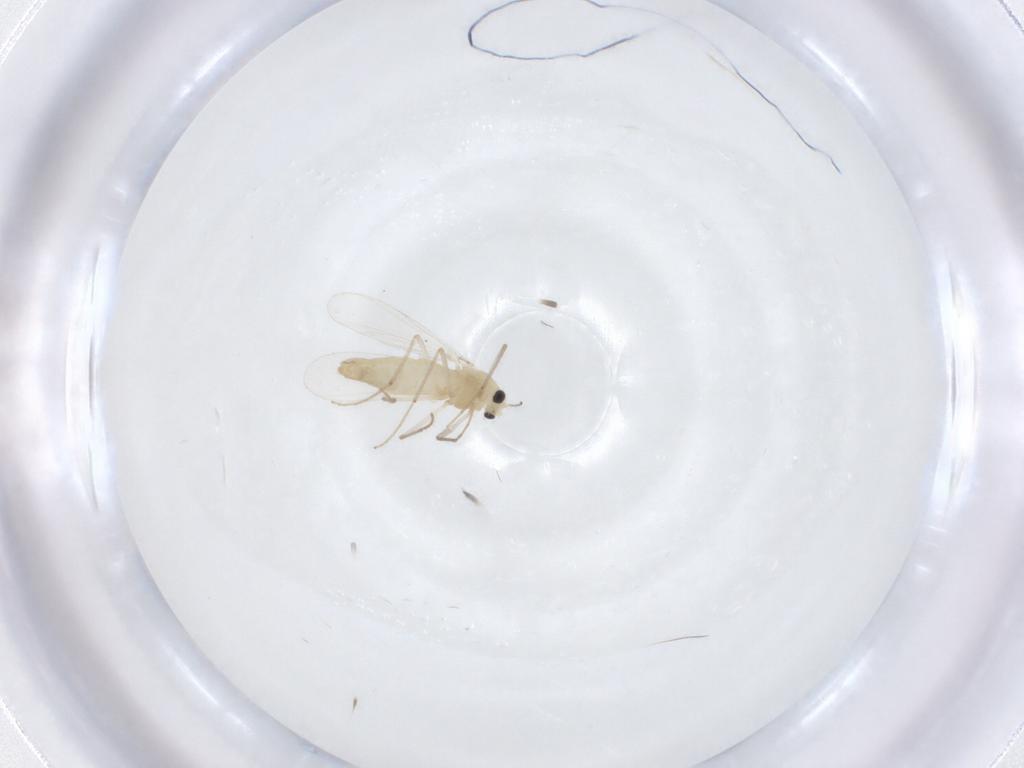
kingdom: Animalia
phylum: Arthropoda
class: Insecta
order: Diptera
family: Chironomidae
